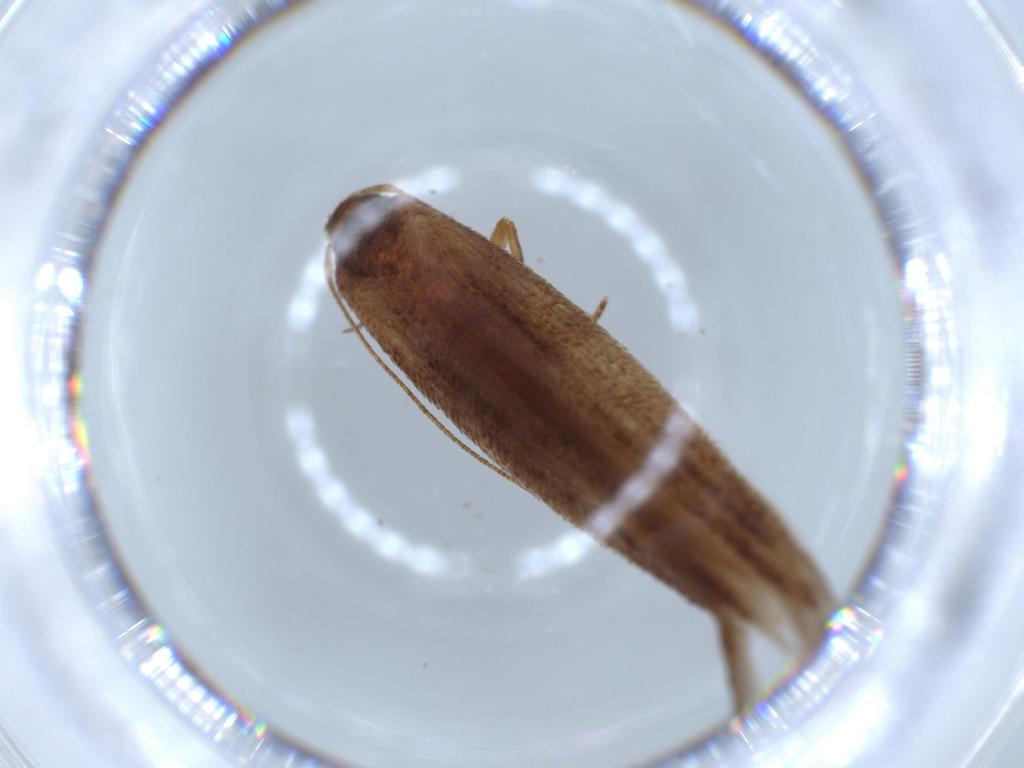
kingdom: Animalia
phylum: Arthropoda
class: Insecta
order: Lepidoptera
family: Stathmopodidae
